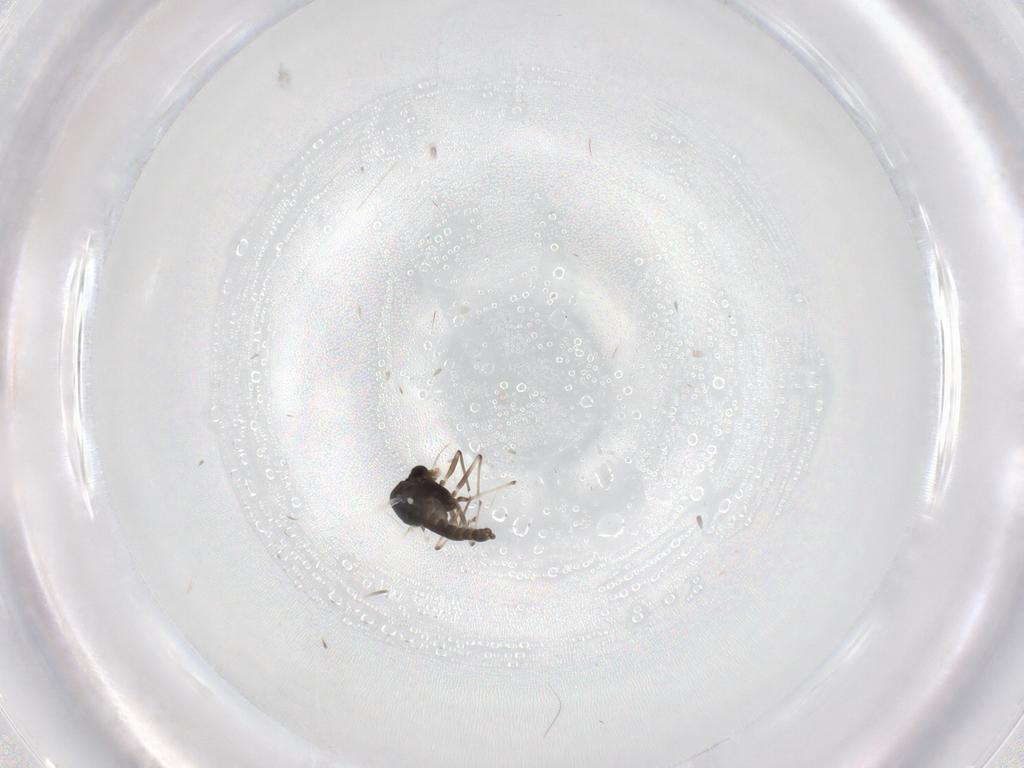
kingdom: Animalia
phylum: Arthropoda
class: Insecta
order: Diptera
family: Chironomidae
